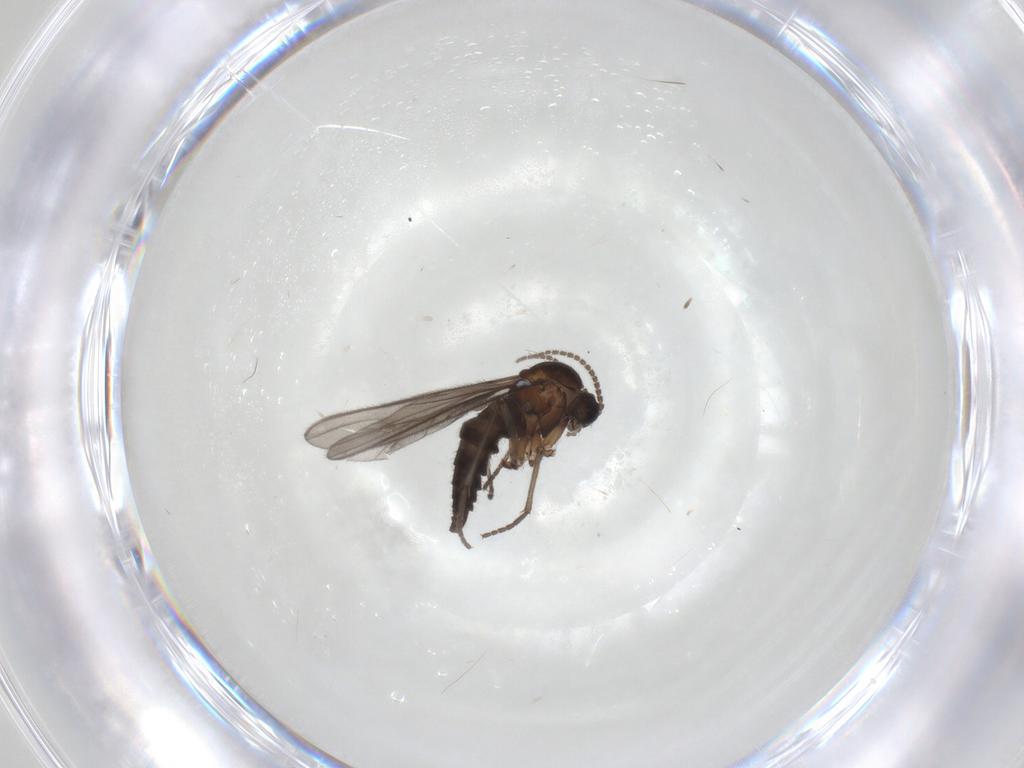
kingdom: Animalia
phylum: Arthropoda
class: Insecta
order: Diptera
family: Sciaridae
